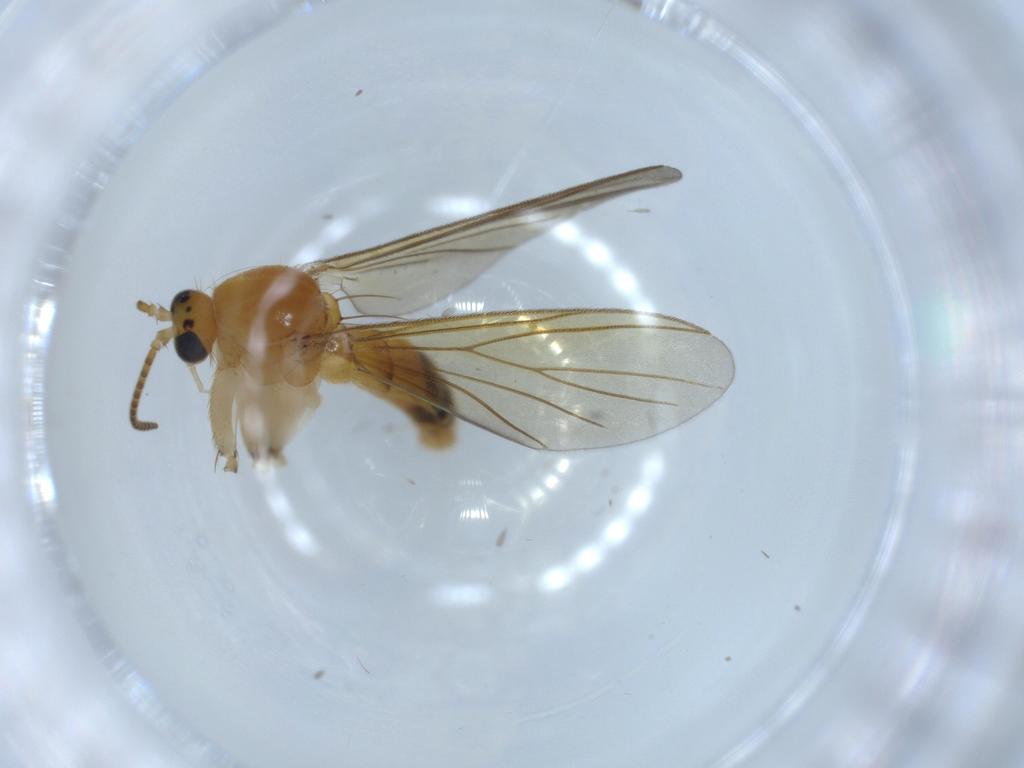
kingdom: Animalia
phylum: Arthropoda
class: Insecta
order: Diptera
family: Mycetophilidae
